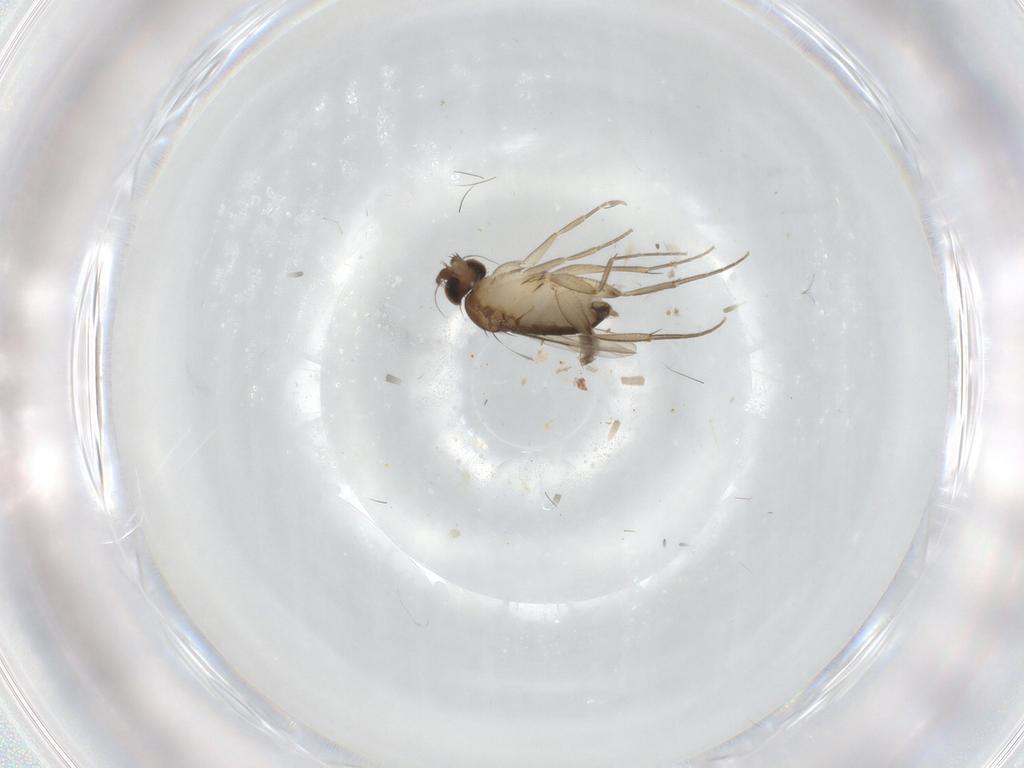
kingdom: Animalia
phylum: Arthropoda
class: Insecta
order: Diptera
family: Phoridae
